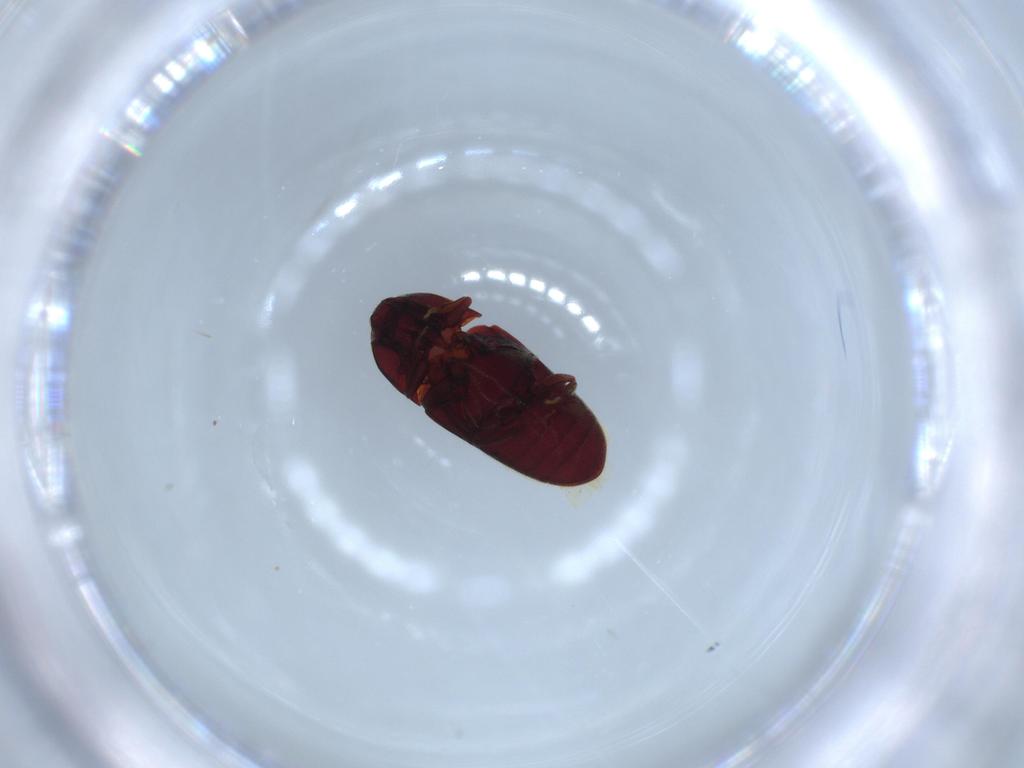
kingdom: Animalia
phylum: Arthropoda
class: Insecta
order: Coleoptera
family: Throscidae
